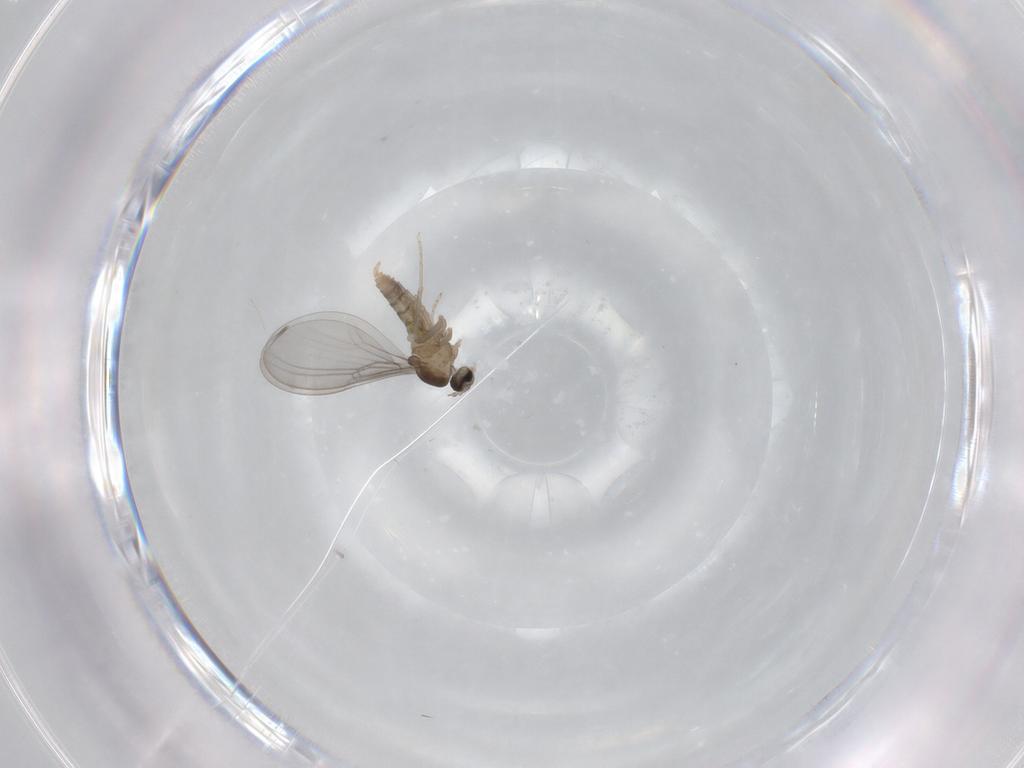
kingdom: Animalia
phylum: Arthropoda
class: Insecta
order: Diptera
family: Cecidomyiidae
